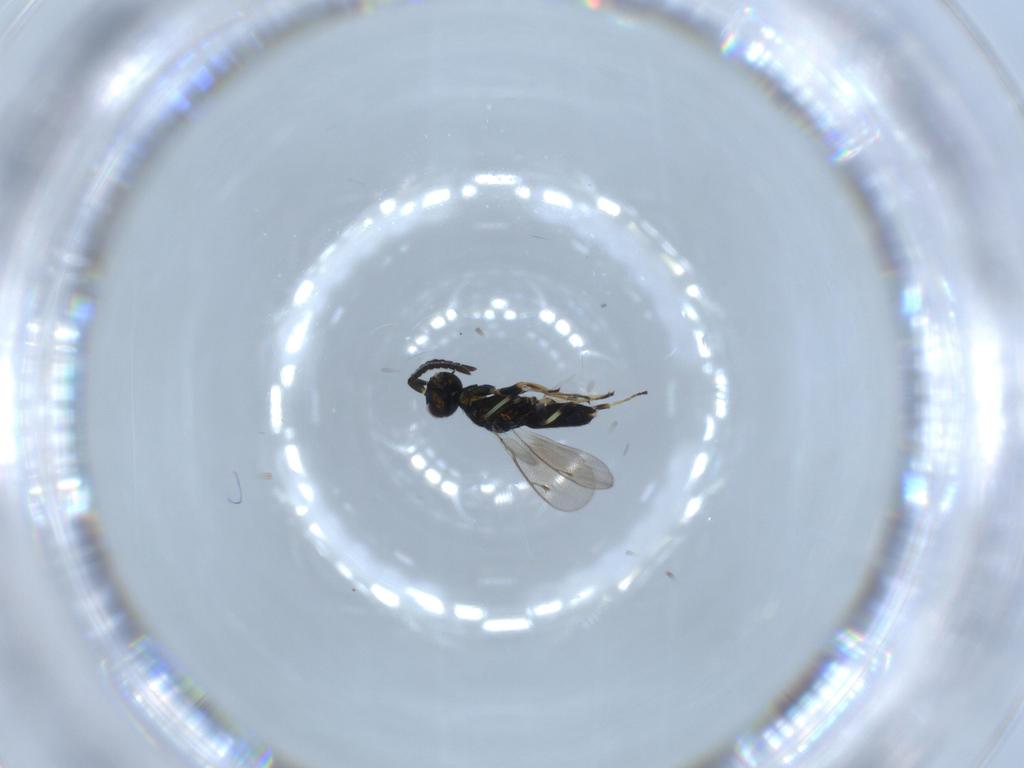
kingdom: Animalia
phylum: Arthropoda
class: Insecta
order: Hymenoptera
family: Eupelmidae
